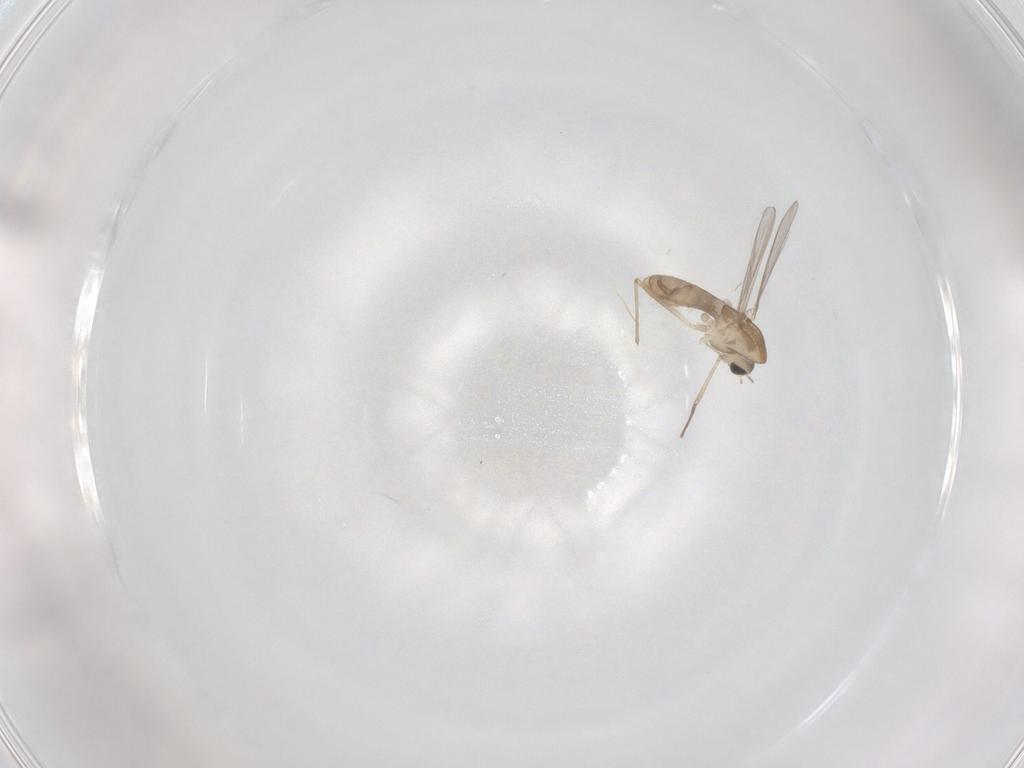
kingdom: Animalia
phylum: Arthropoda
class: Insecta
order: Diptera
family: Chironomidae
